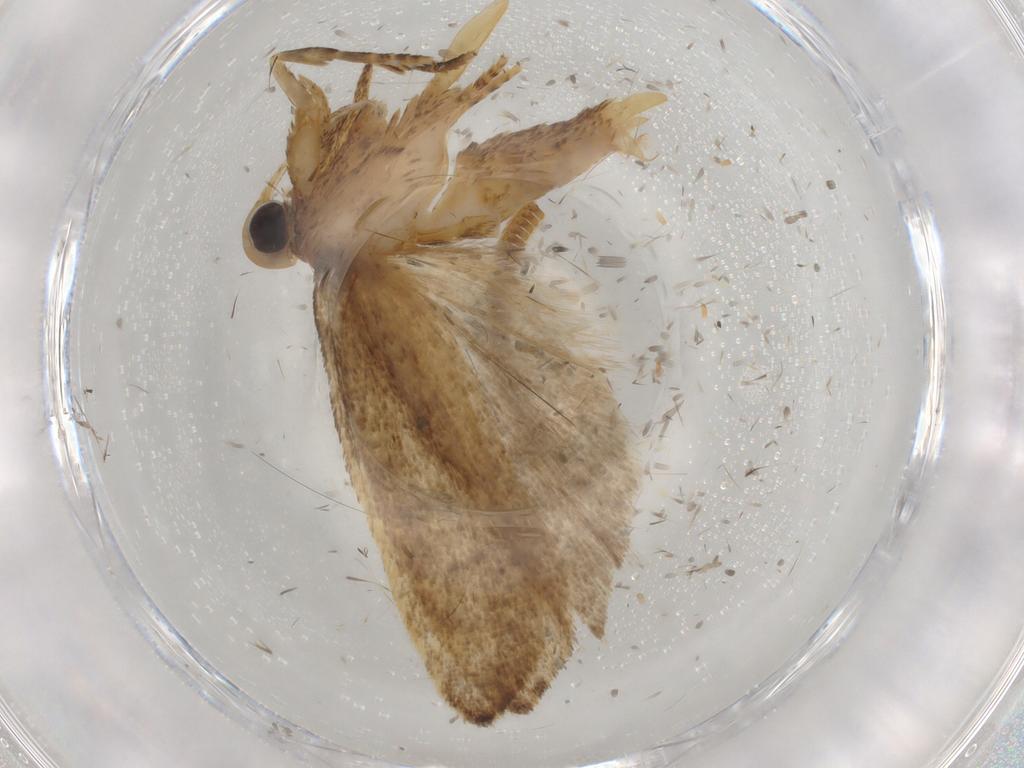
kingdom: Animalia
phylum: Arthropoda
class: Insecta
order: Lepidoptera
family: Tineidae
